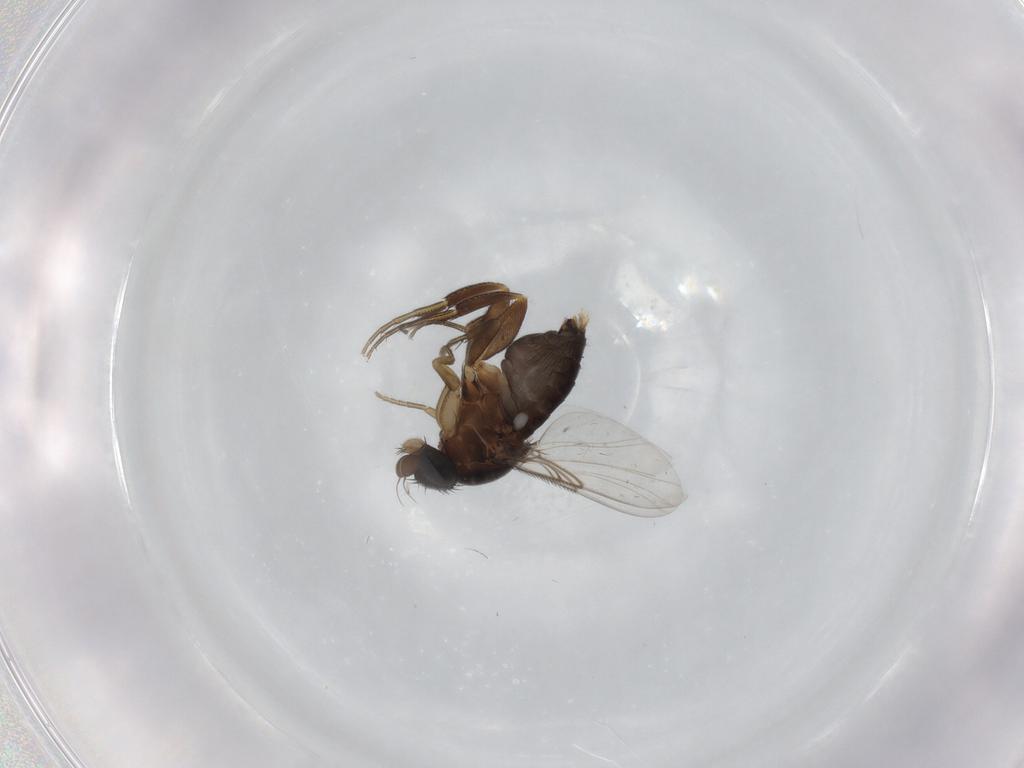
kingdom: Animalia
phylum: Arthropoda
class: Insecta
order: Diptera
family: Phoridae
